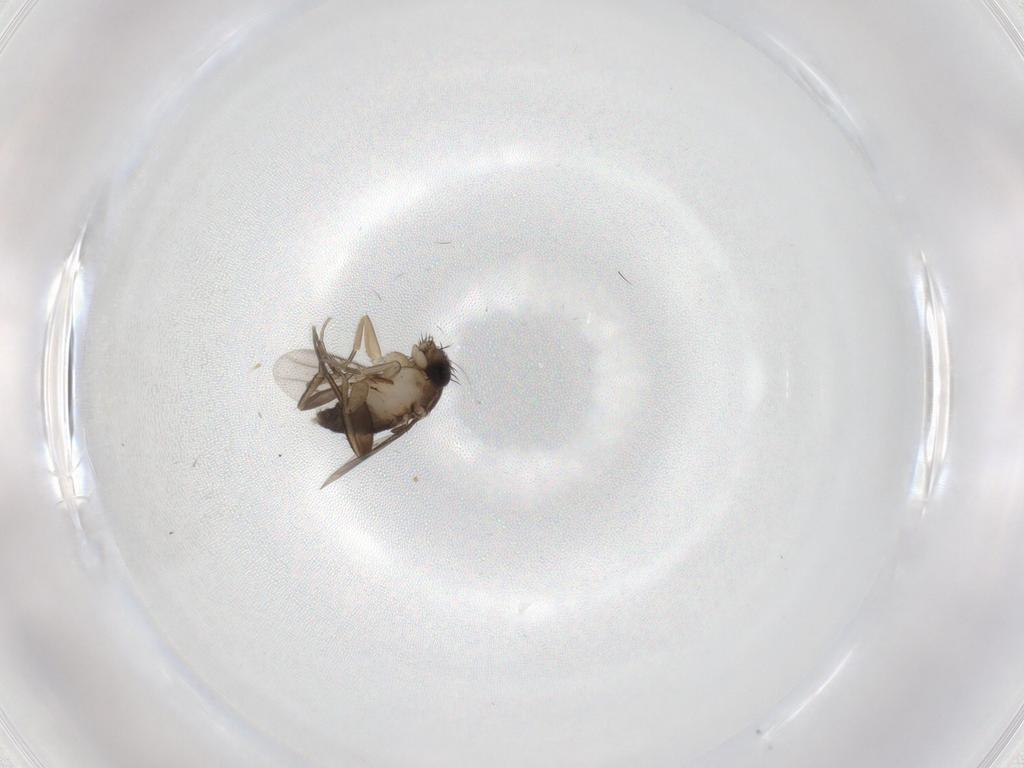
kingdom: Animalia
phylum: Arthropoda
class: Insecta
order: Diptera
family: Phoridae
